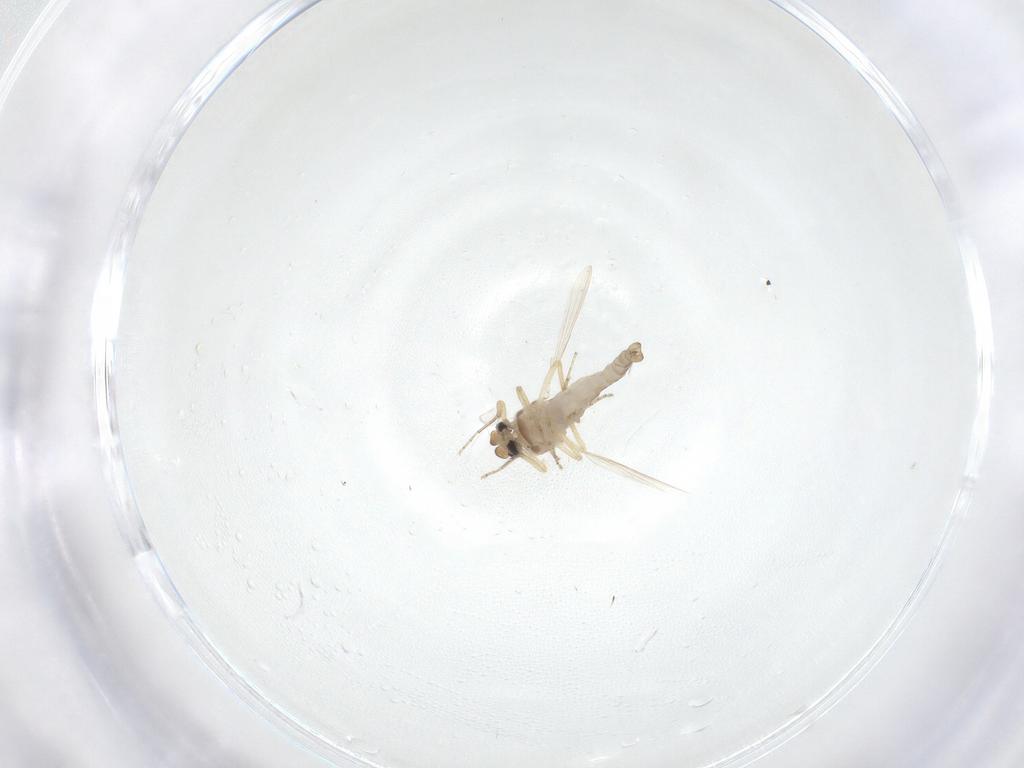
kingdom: Animalia
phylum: Arthropoda
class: Insecta
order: Diptera
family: Ceratopogonidae
